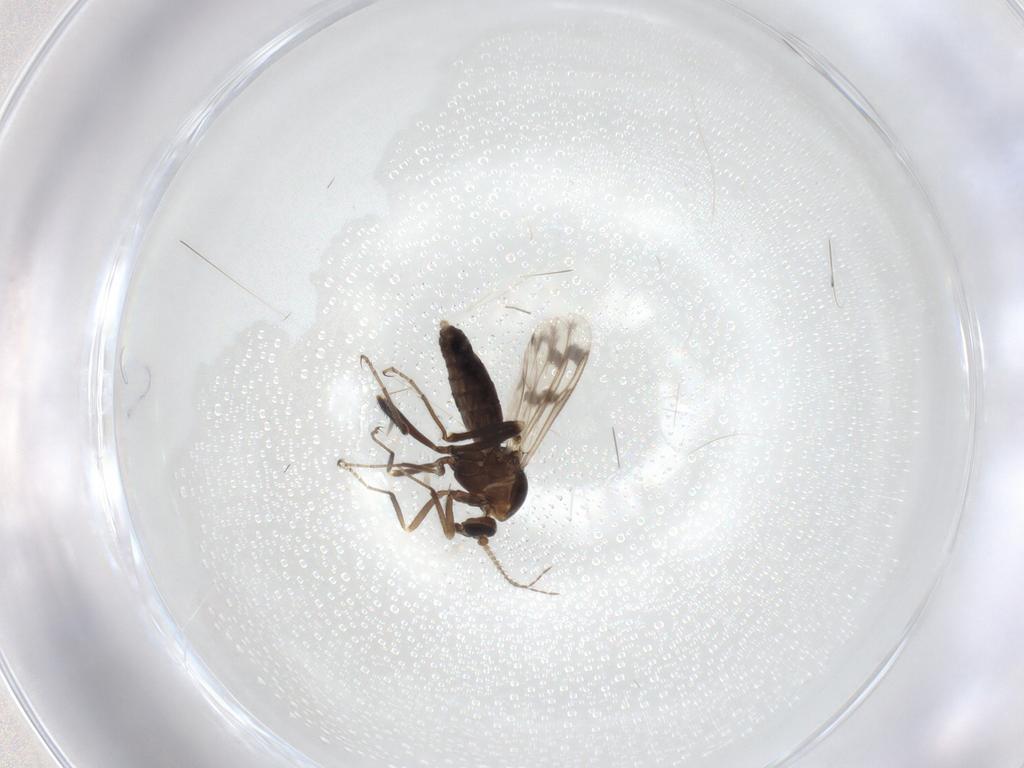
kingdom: Animalia
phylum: Arthropoda
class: Insecta
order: Diptera
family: Ceratopogonidae
